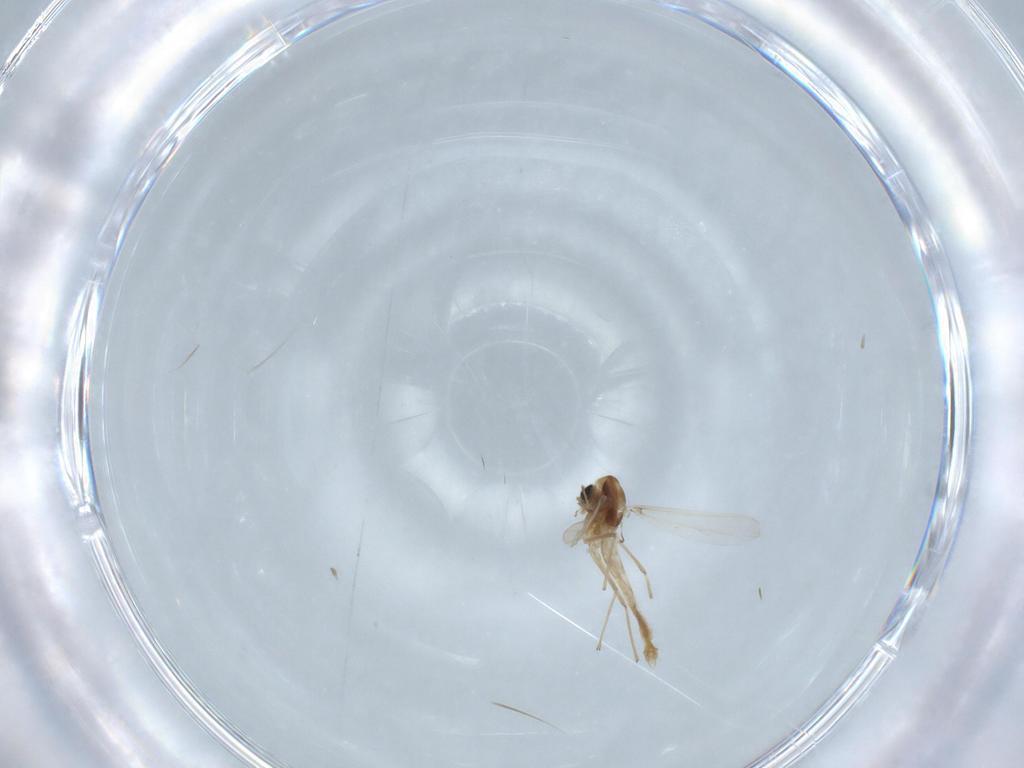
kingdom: Animalia
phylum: Arthropoda
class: Insecta
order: Diptera
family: Chironomidae
